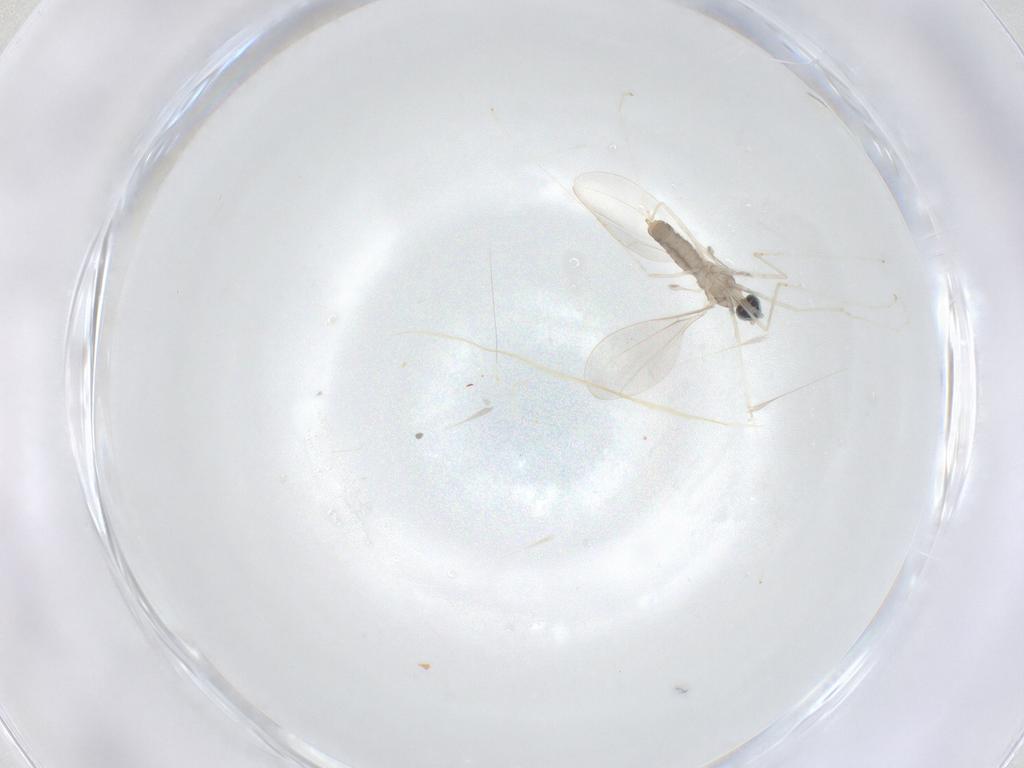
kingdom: Animalia
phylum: Arthropoda
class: Insecta
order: Diptera
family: Cecidomyiidae
